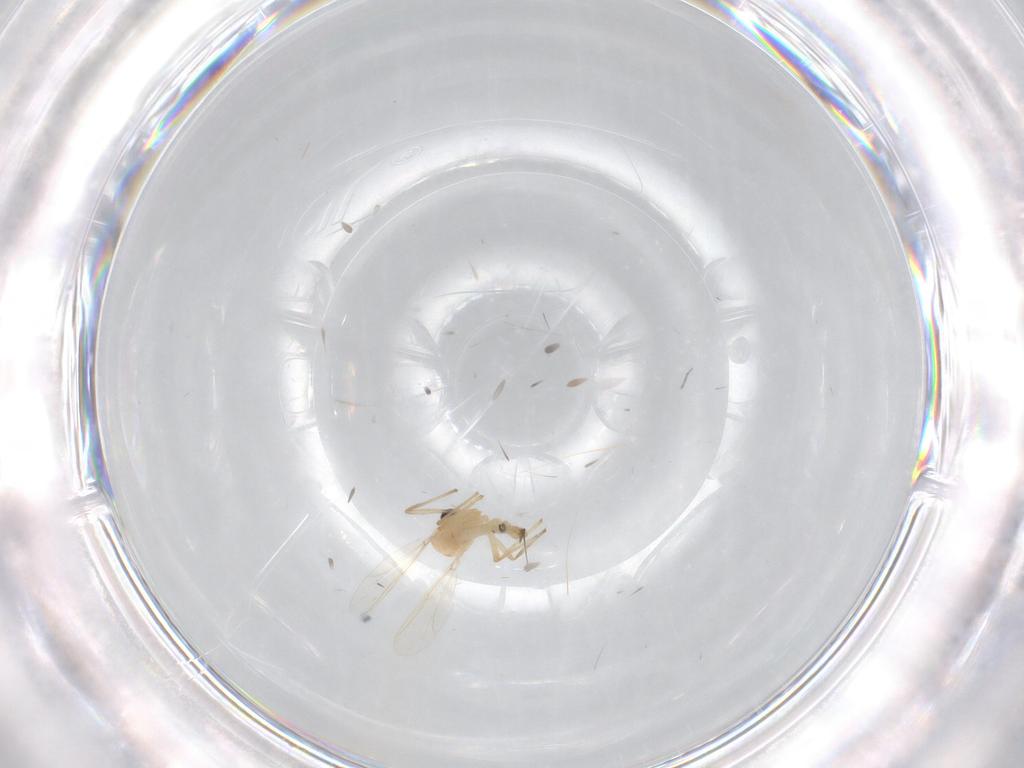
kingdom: Animalia
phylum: Arthropoda
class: Insecta
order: Diptera
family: Chironomidae
